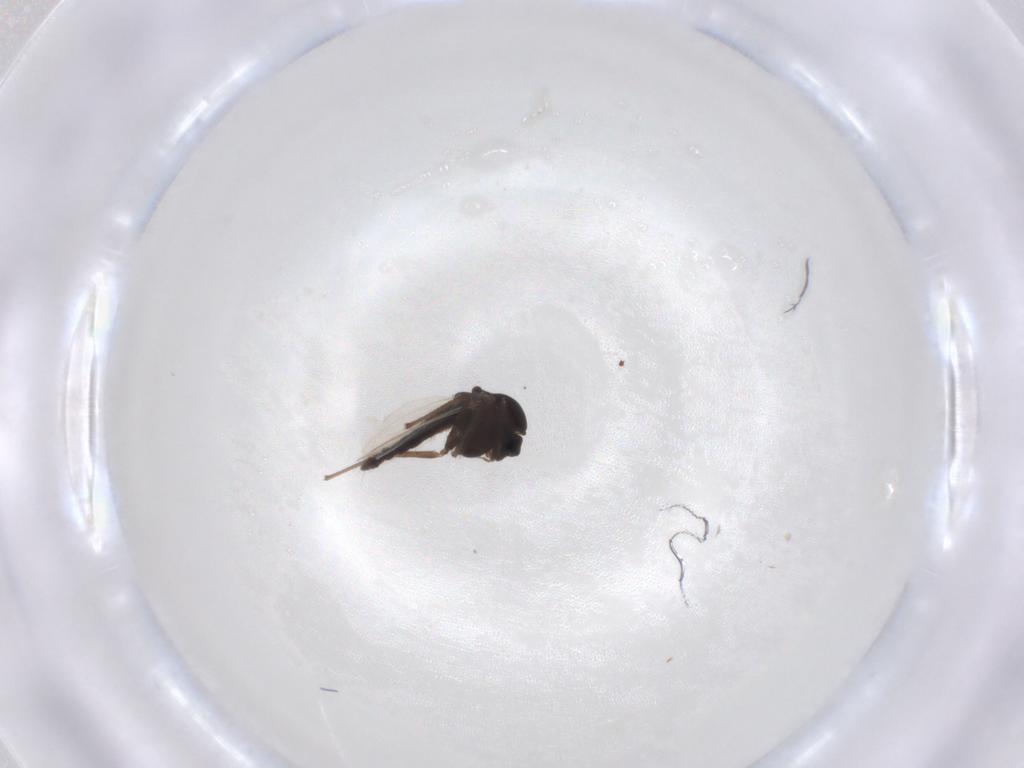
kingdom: Animalia
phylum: Arthropoda
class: Insecta
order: Diptera
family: Chironomidae
